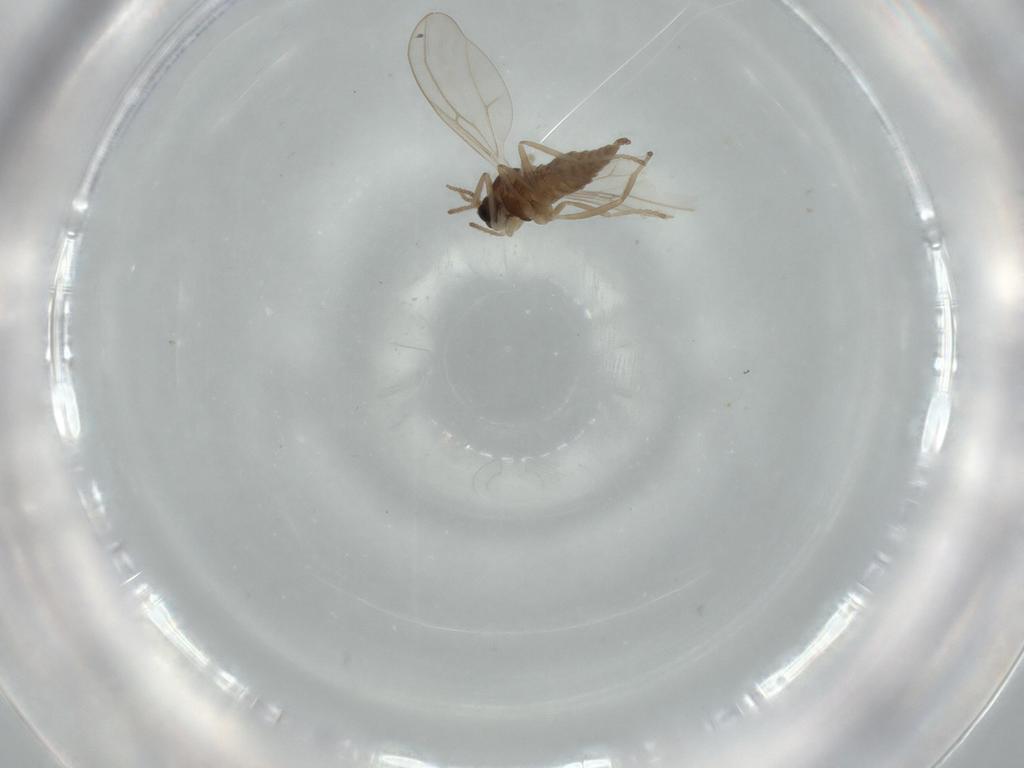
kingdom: Animalia
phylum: Arthropoda
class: Insecta
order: Diptera
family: Cecidomyiidae
